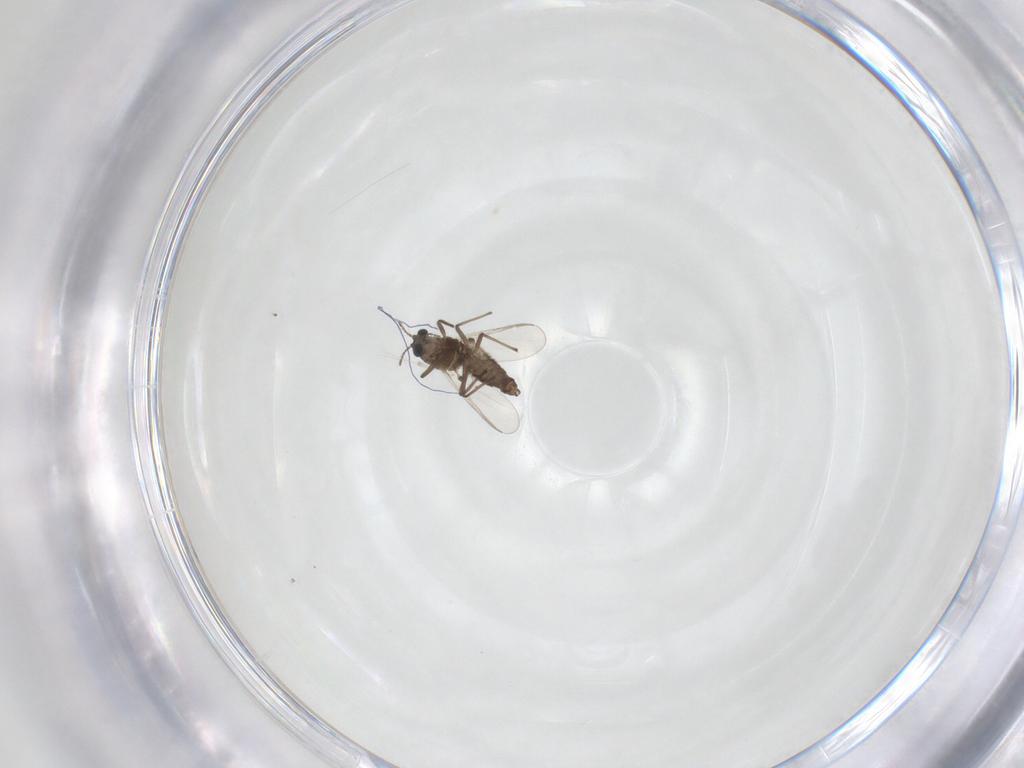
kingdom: Animalia
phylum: Arthropoda
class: Insecta
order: Diptera
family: Chironomidae
